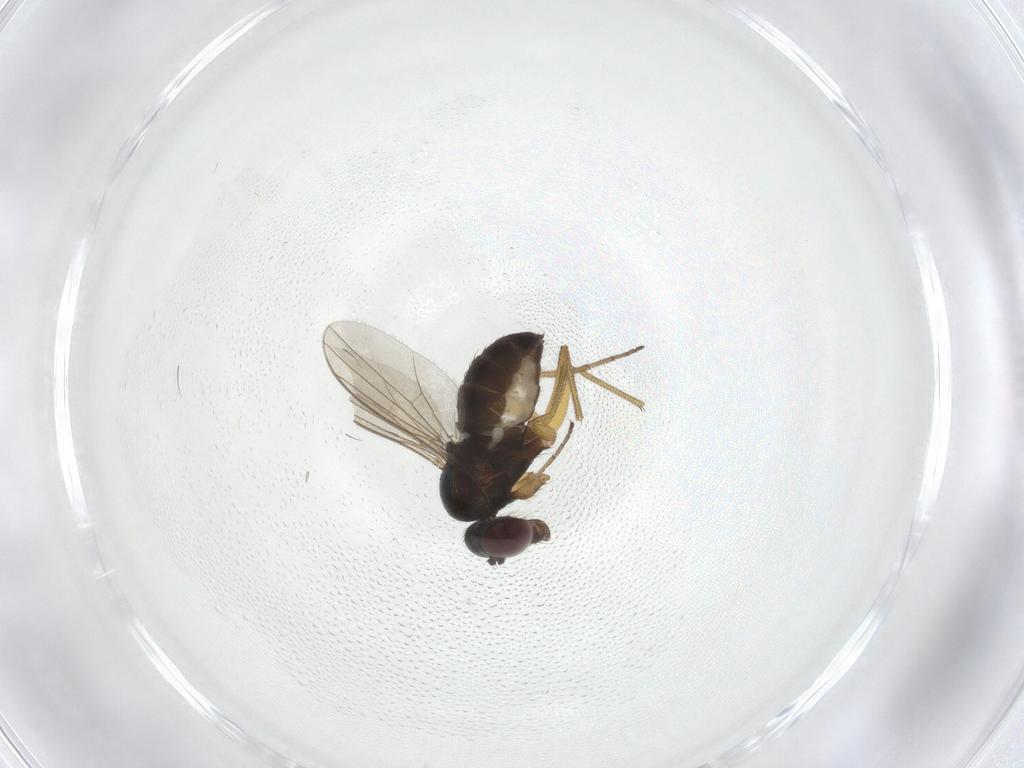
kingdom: Animalia
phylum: Arthropoda
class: Insecta
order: Diptera
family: Dolichopodidae
